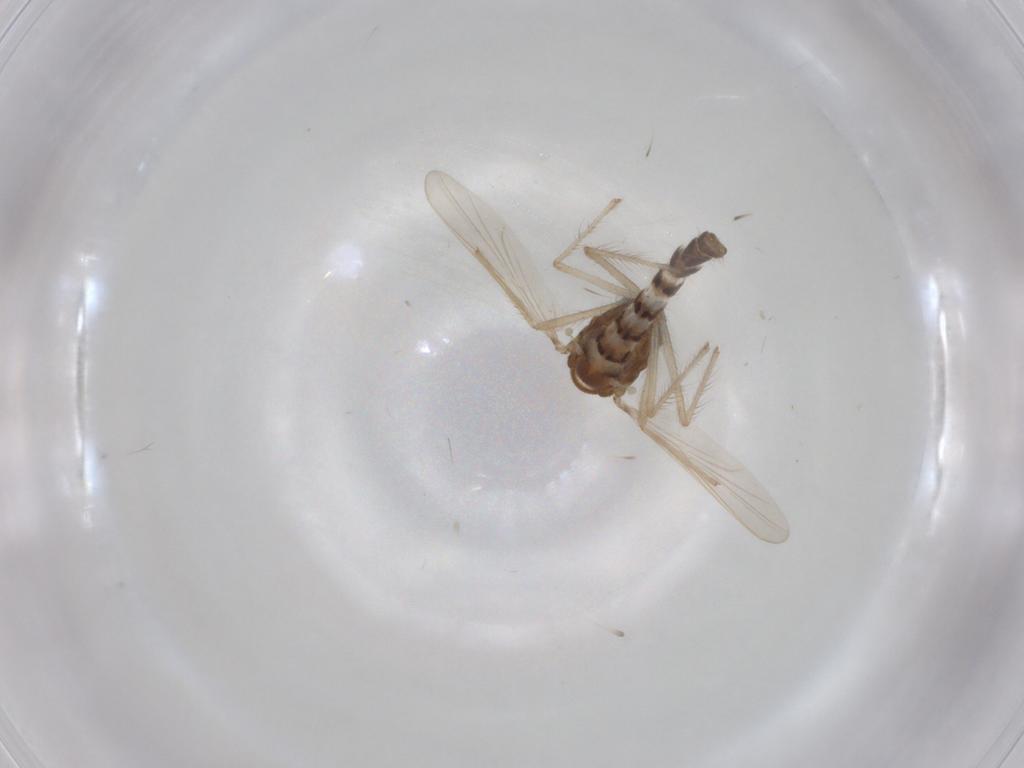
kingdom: Animalia
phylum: Arthropoda
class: Insecta
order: Diptera
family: Chironomidae
